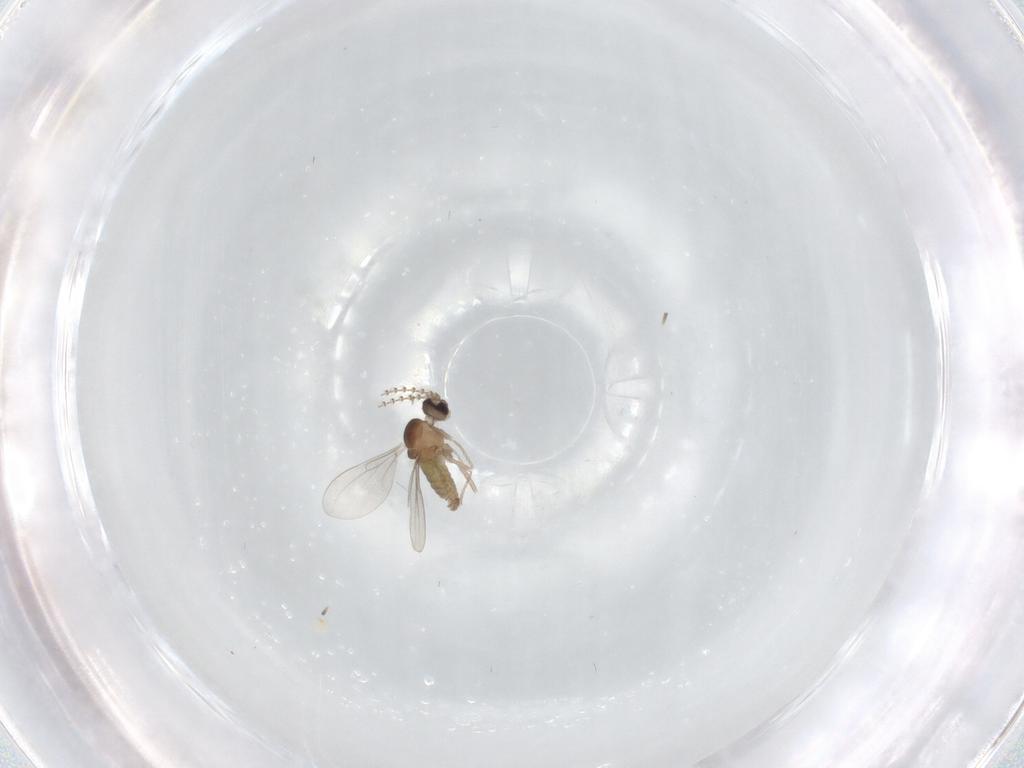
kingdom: Animalia
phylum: Arthropoda
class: Insecta
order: Diptera
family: Cecidomyiidae
